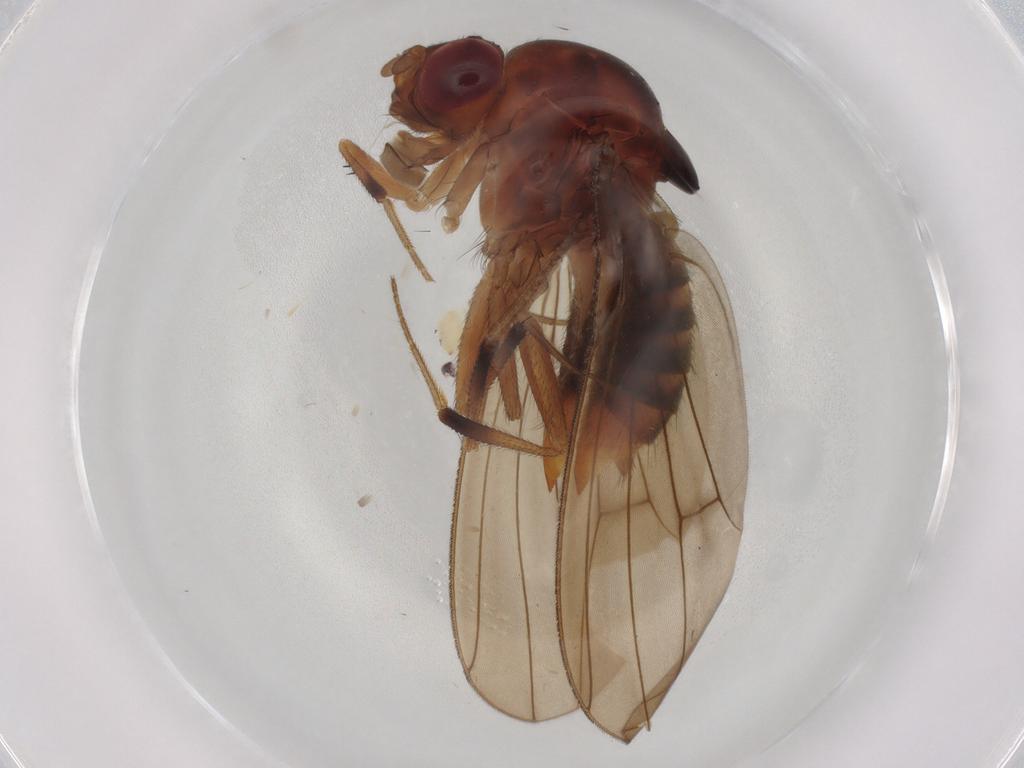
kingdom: Animalia
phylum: Arthropoda
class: Insecta
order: Diptera
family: Drosophilidae
